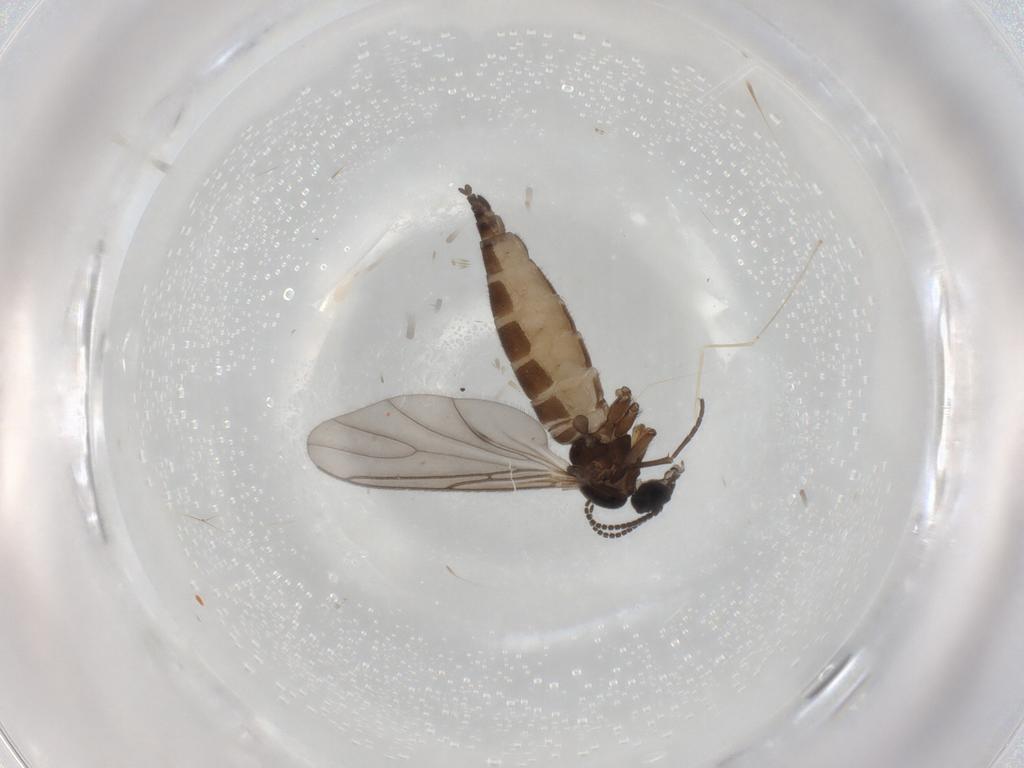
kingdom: Animalia
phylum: Arthropoda
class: Insecta
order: Diptera
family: Sciaridae
